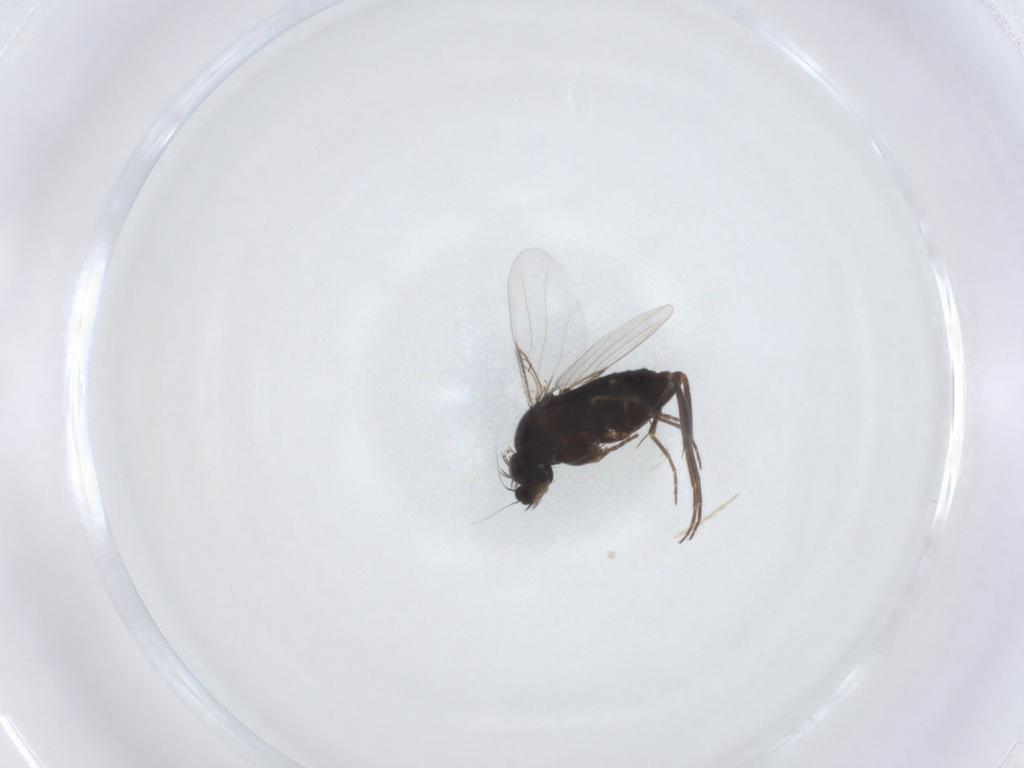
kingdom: Animalia
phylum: Arthropoda
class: Insecta
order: Diptera
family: Phoridae
